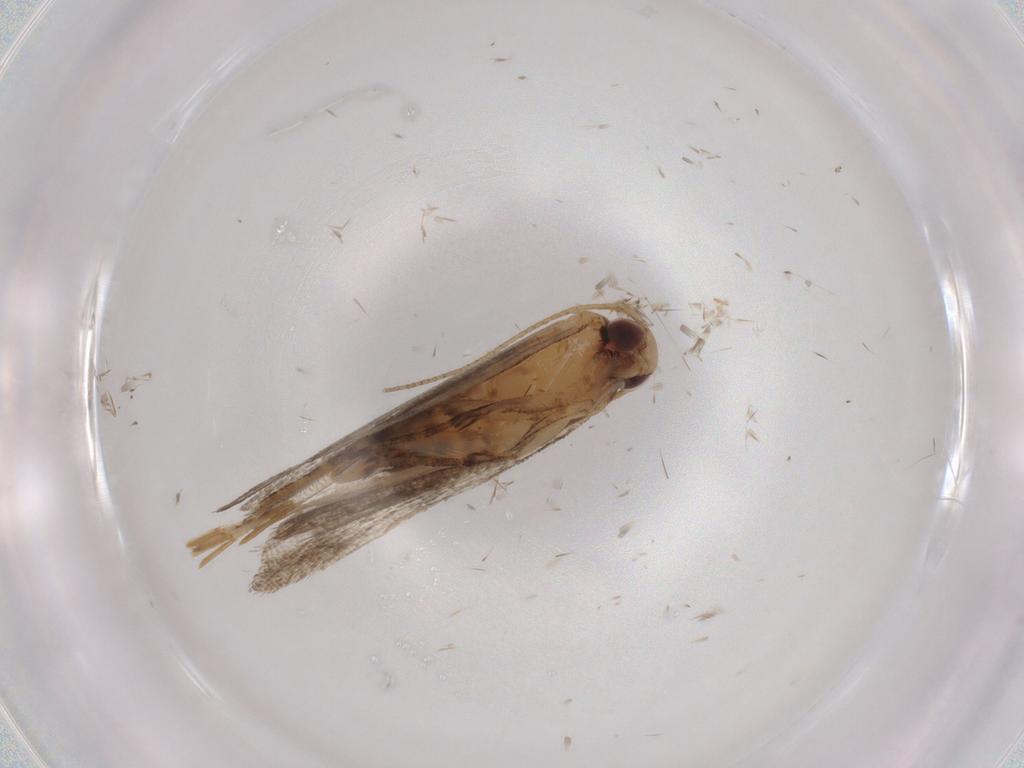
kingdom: Animalia
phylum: Arthropoda
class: Insecta
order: Lepidoptera
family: Gelechiidae
